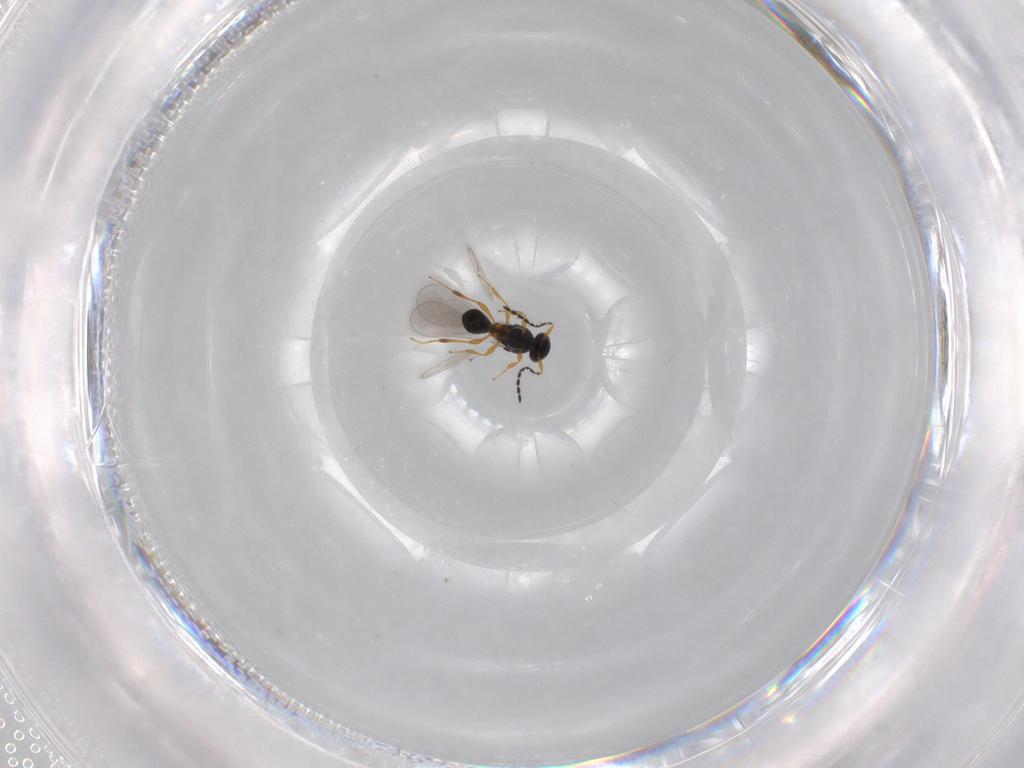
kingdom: Animalia
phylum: Arthropoda
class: Insecta
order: Hymenoptera
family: Platygastridae
